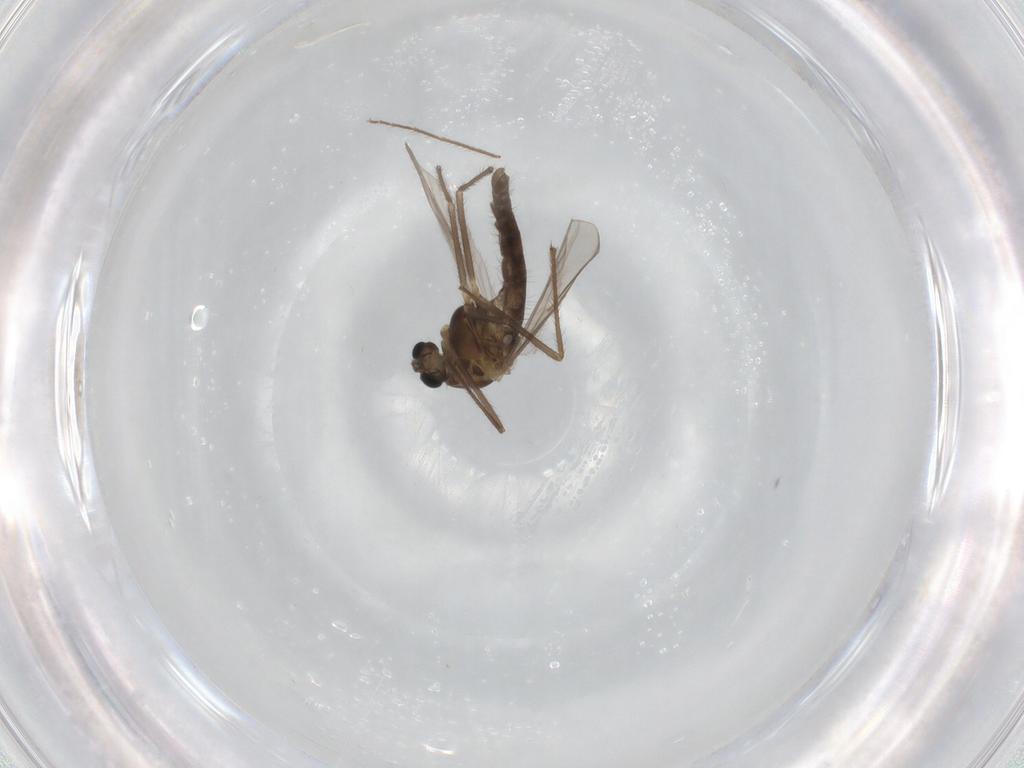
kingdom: Animalia
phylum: Arthropoda
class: Insecta
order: Diptera
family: Chironomidae
